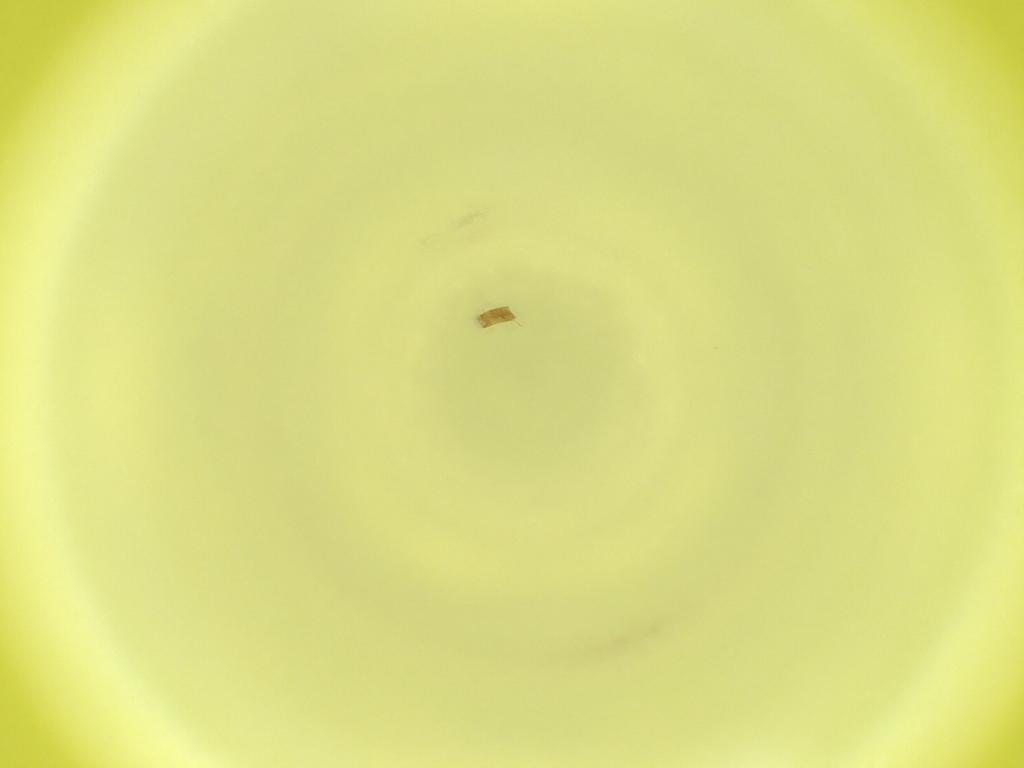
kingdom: Animalia
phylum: Arthropoda
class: Insecta
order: Diptera
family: Cecidomyiidae
